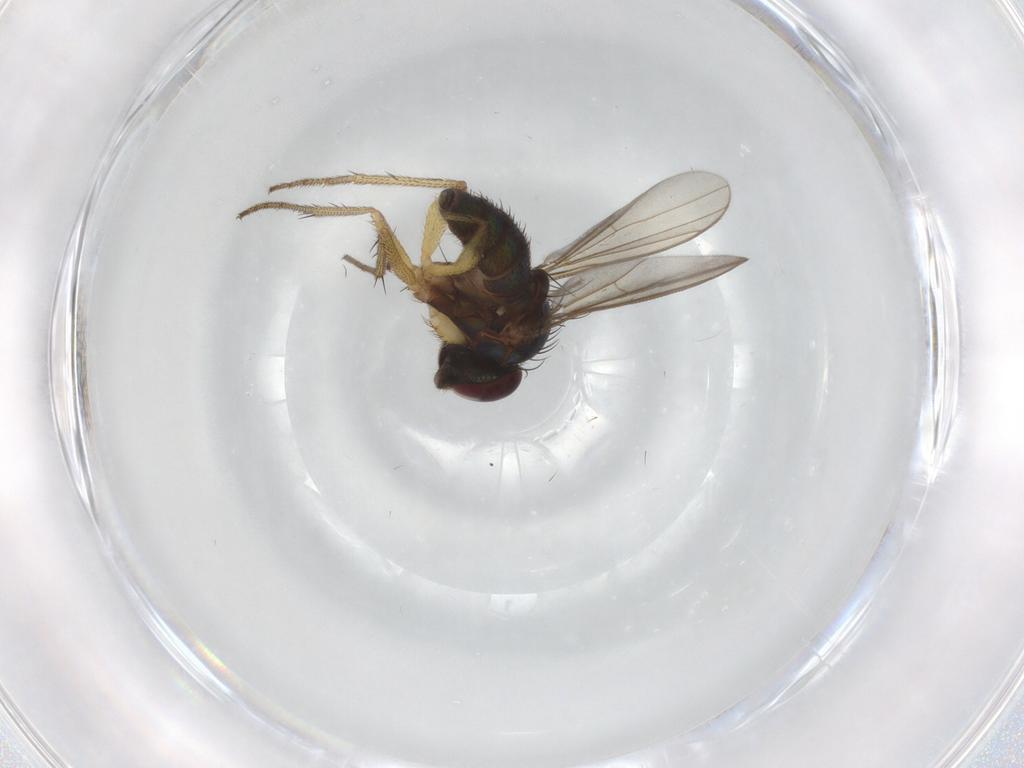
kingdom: Animalia
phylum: Arthropoda
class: Insecta
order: Diptera
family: Dolichopodidae
